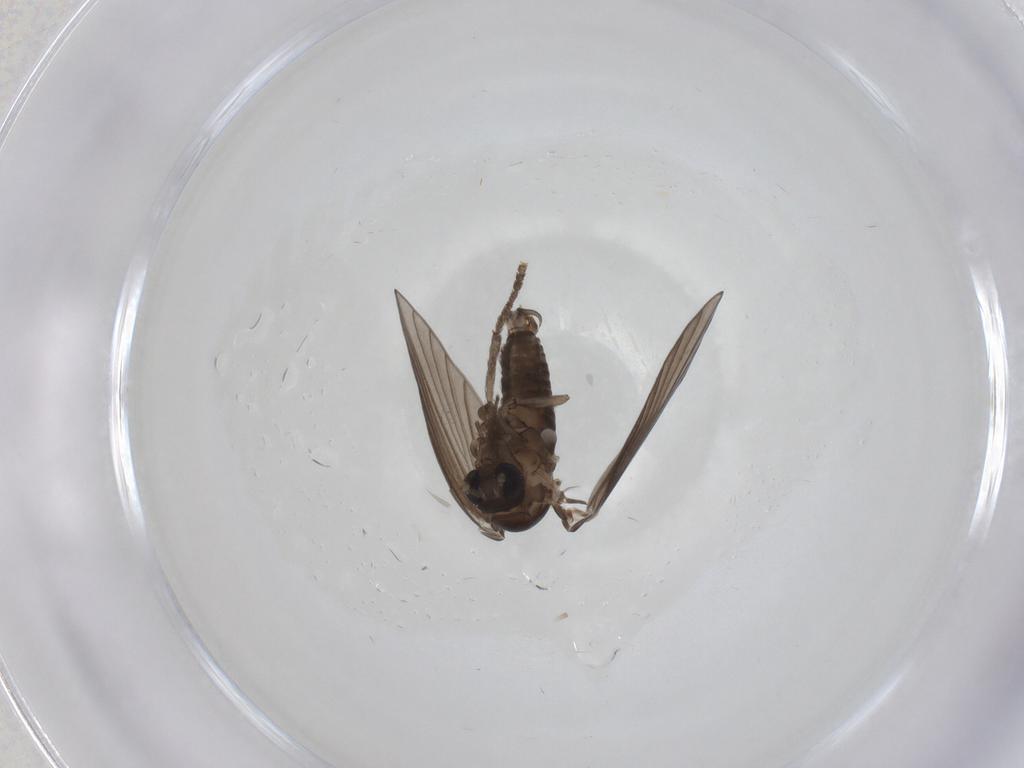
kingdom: Animalia
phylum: Arthropoda
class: Insecta
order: Diptera
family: Psychodidae
